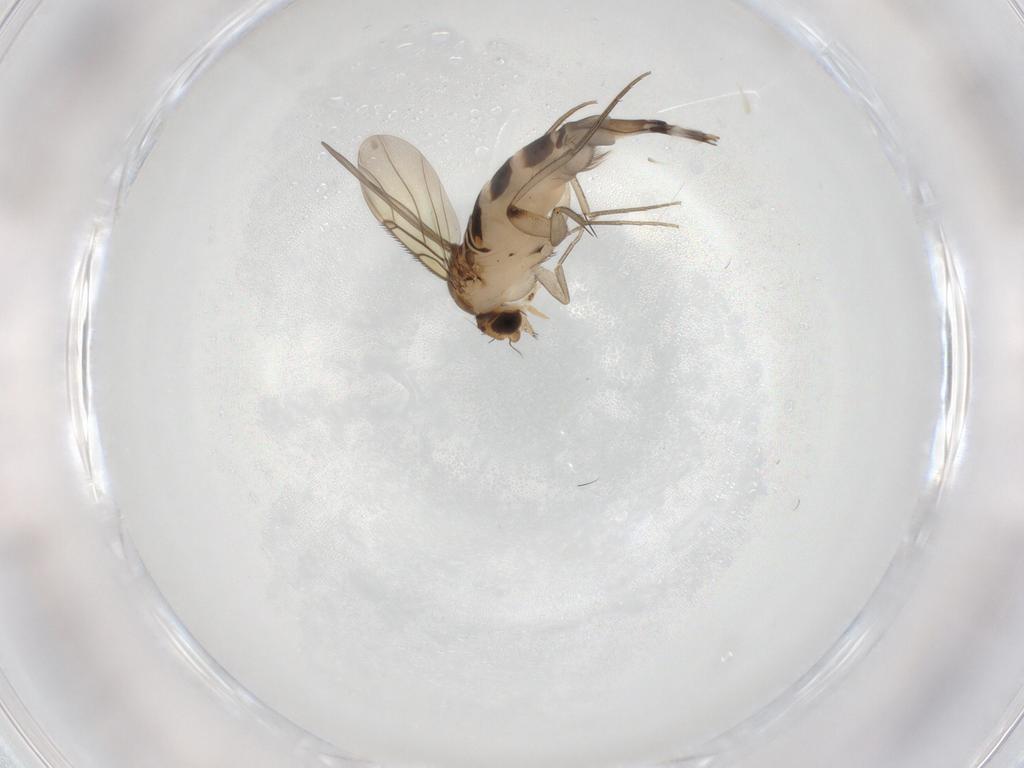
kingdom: Animalia
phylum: Arthropoda
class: Insecta
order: Diptera
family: Phoridae
